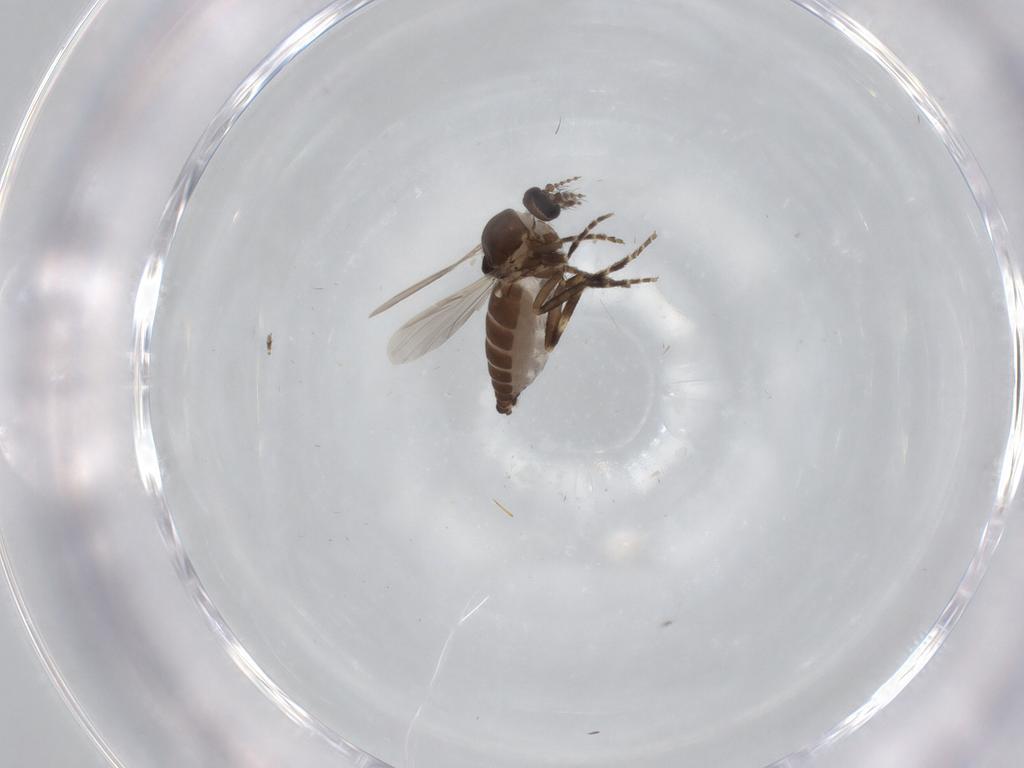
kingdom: Animalia
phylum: Arthropoda
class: Insecta
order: Diptera
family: Ceratopogonidae
